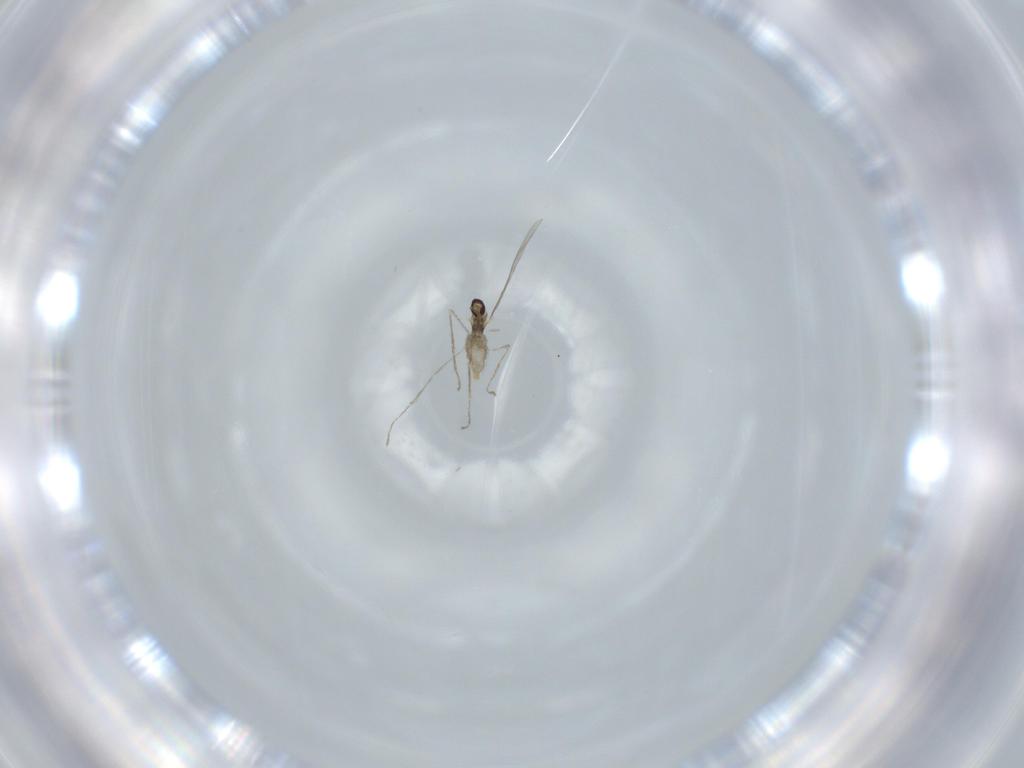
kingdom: Animalia
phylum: Arthropoda
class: Insecta
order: Diptera
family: Cecidomyiidae
